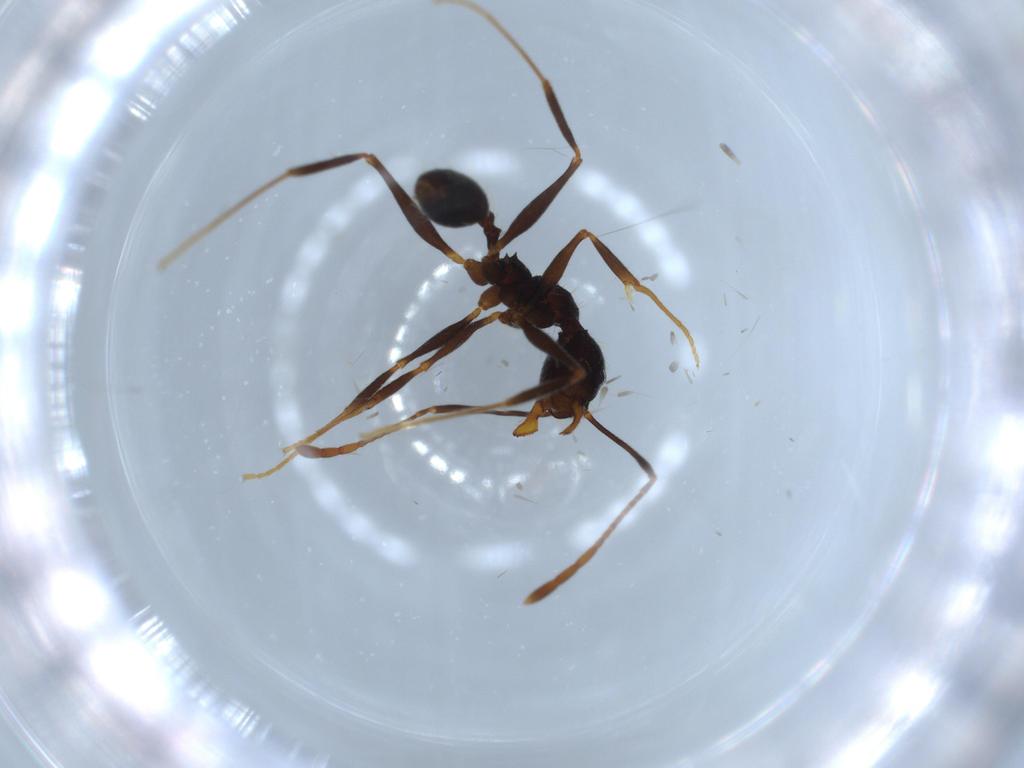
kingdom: Animalia
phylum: Arthropoda
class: Insecta
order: Hymenoptera
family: Formicidae
